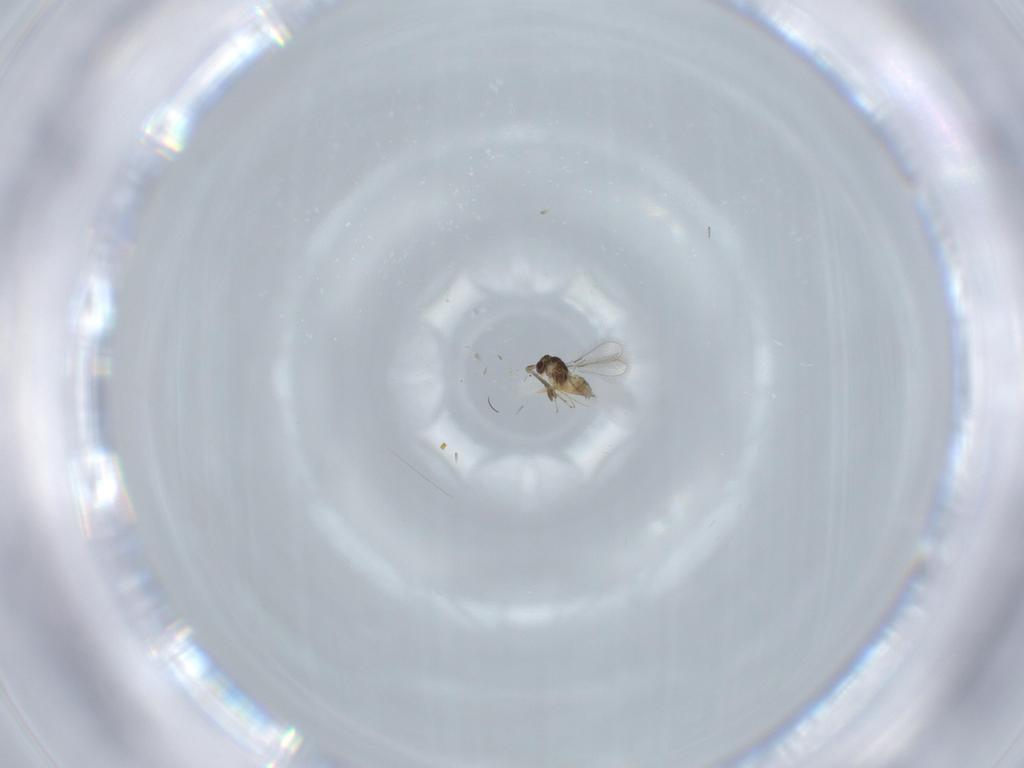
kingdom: Animalia
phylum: Arthropoda
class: Insecta
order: Hymenoptera
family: Mymaridae
